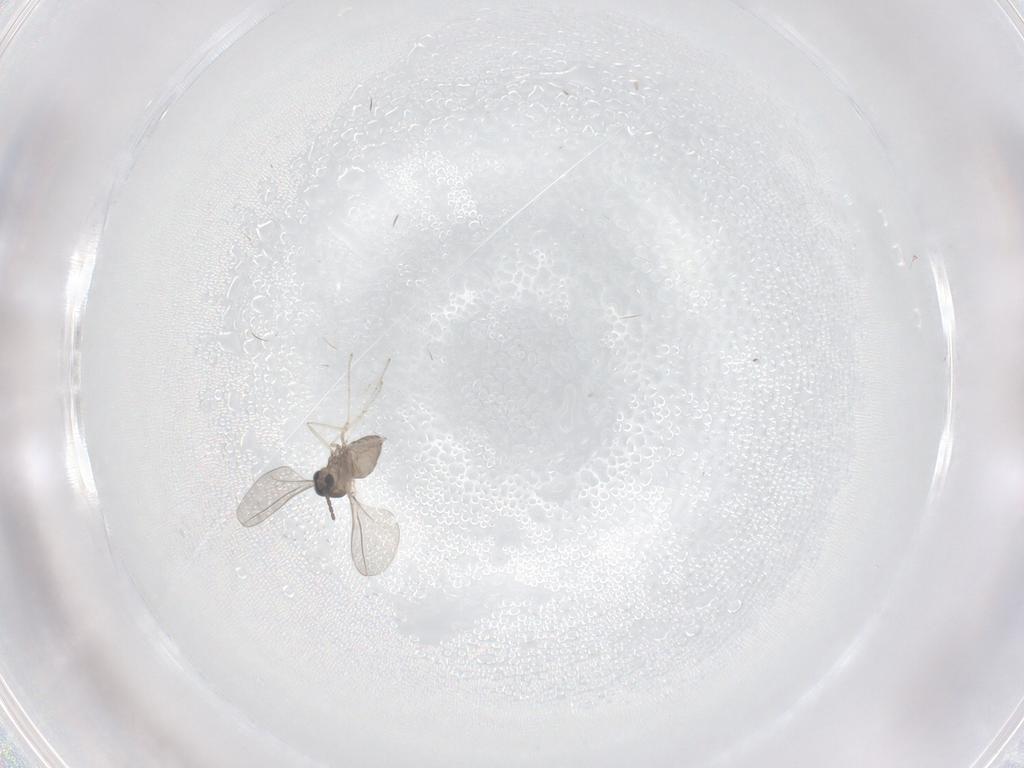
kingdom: Animalia
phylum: Arthropoda
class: Insecta
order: Diptera
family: Cecidomyiidae
